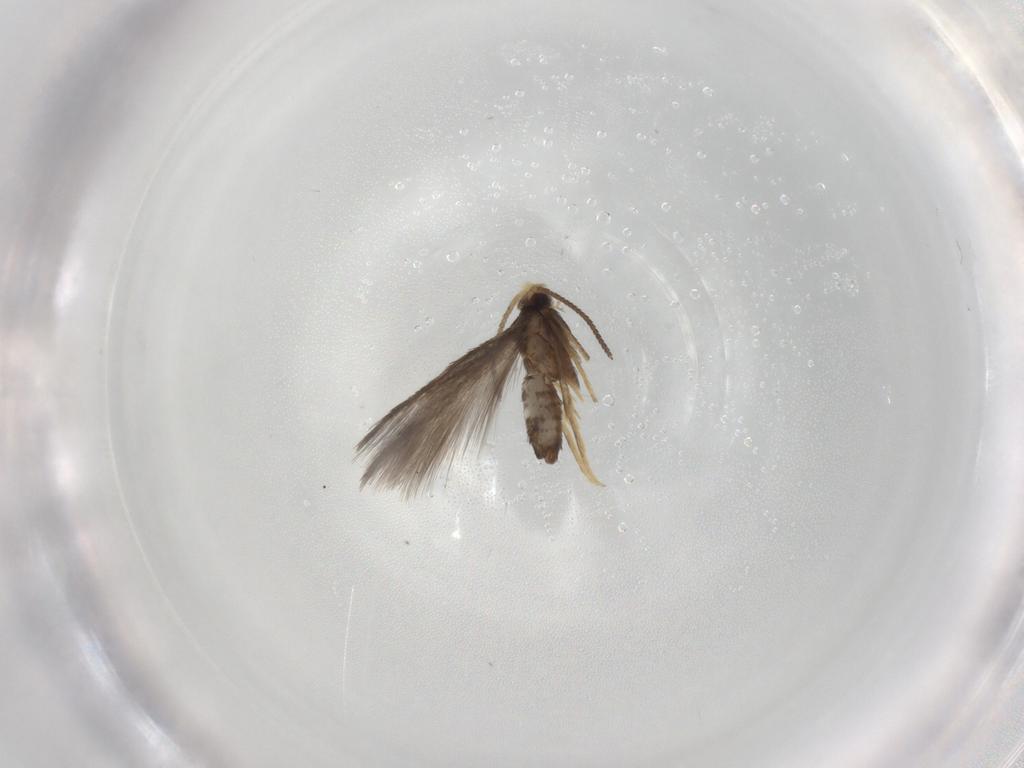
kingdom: Animalia
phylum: Arthropoda
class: Insecta
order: Lepidoptera
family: Nepticulidae
